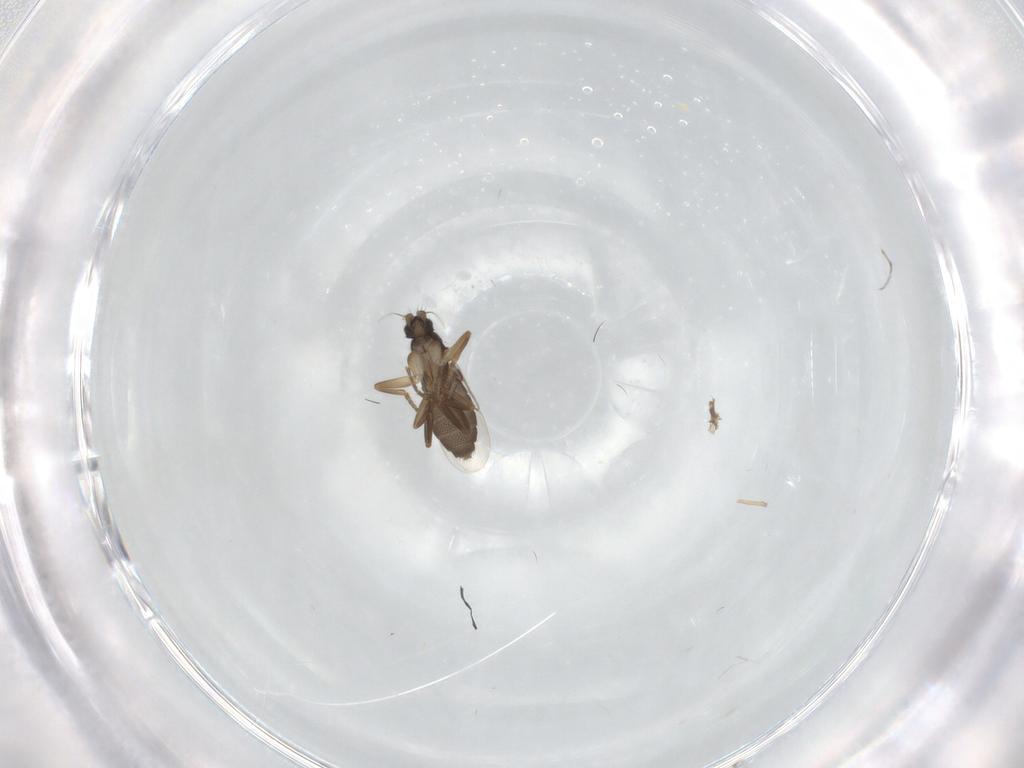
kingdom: Animalia
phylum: Arthropoda
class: Insecta
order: Diptera
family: Phoridae
